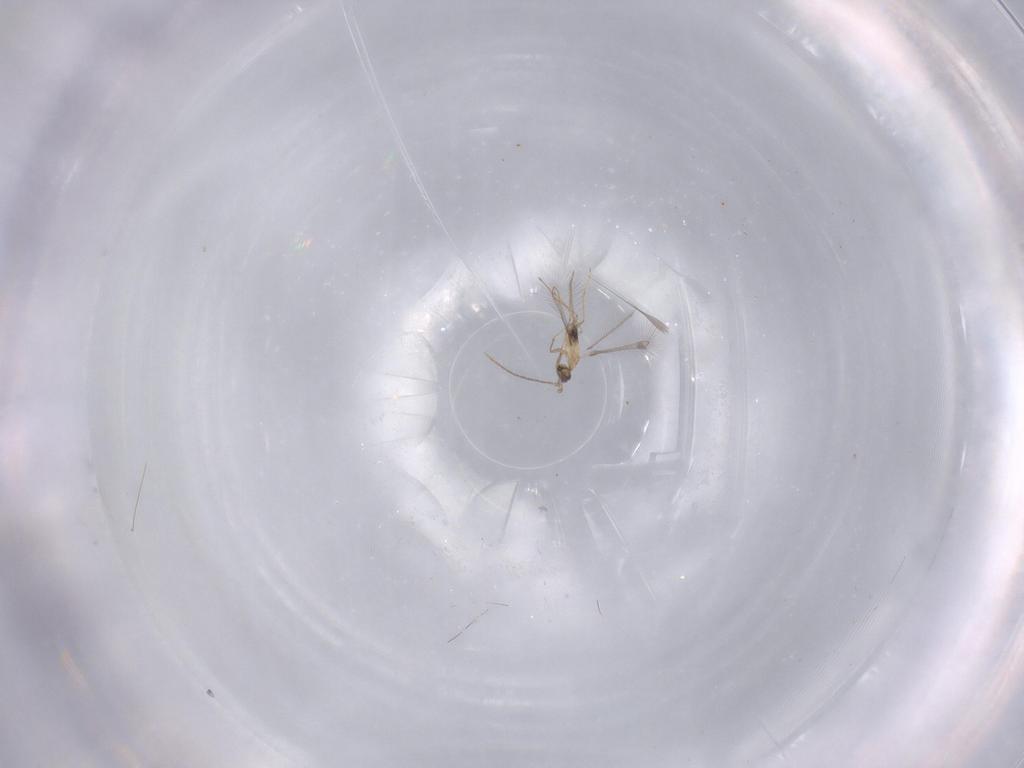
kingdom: Animalia
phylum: Arthropoda
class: Insecta
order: Hymenoptera
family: Mymaridae
